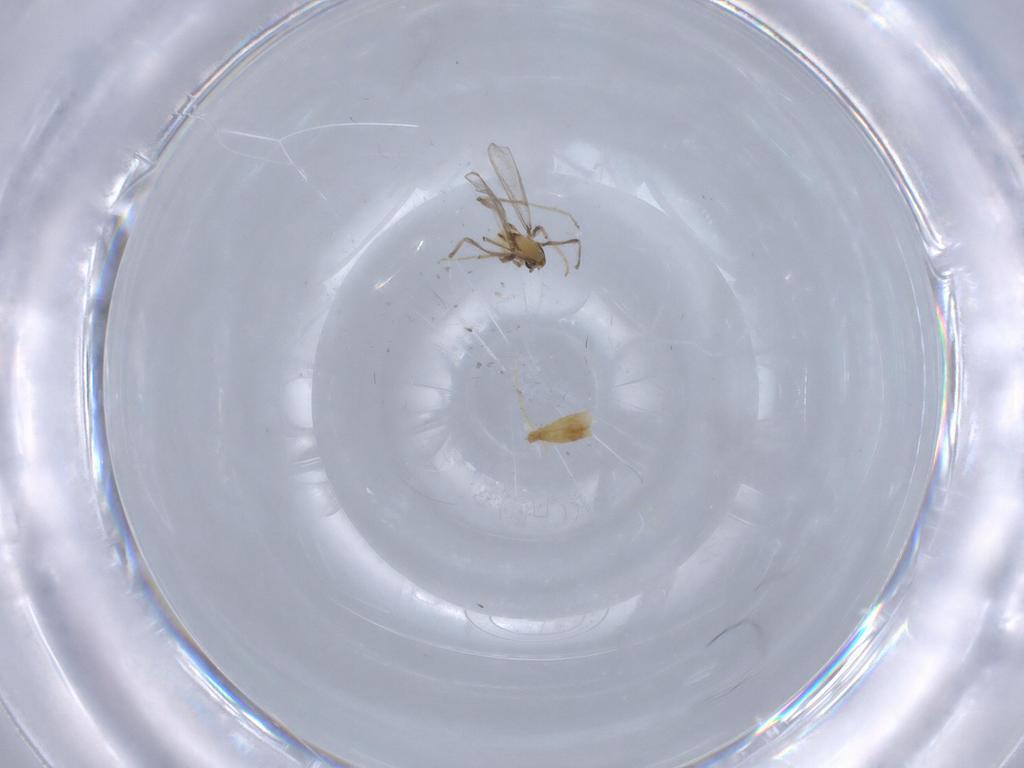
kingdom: Animalia
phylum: Arthropoda
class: Insecta
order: Diptera
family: Chironomidae
